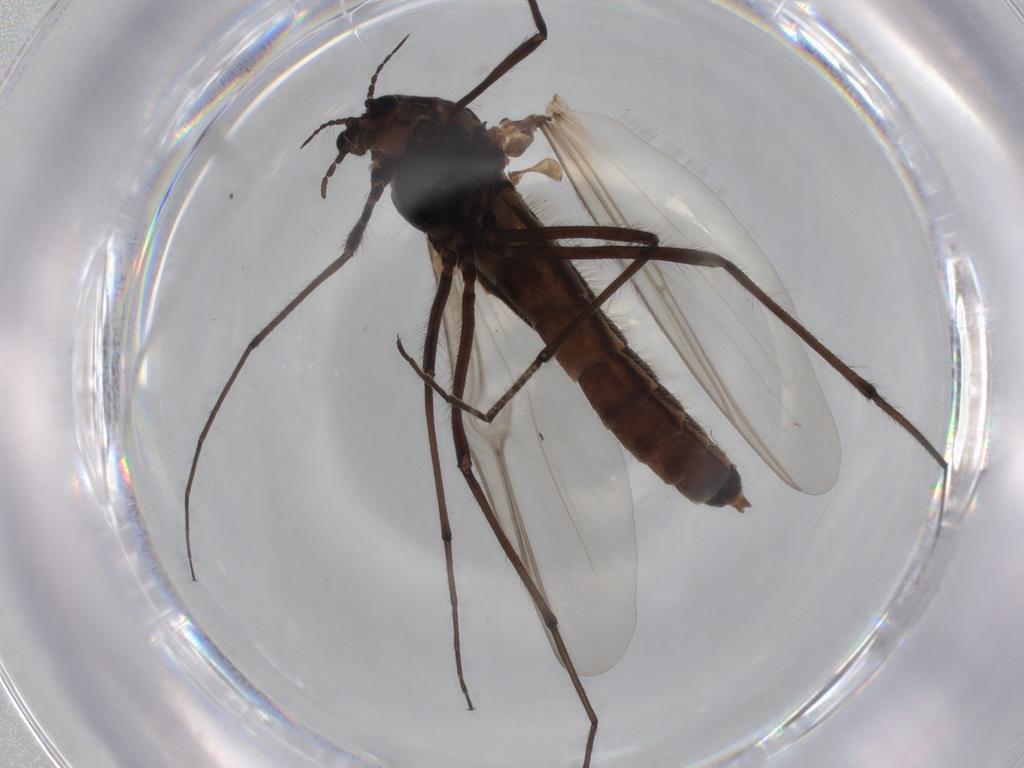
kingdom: Animalia
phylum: Arthropoda
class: Insecta
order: Diptera
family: Chironomidae
